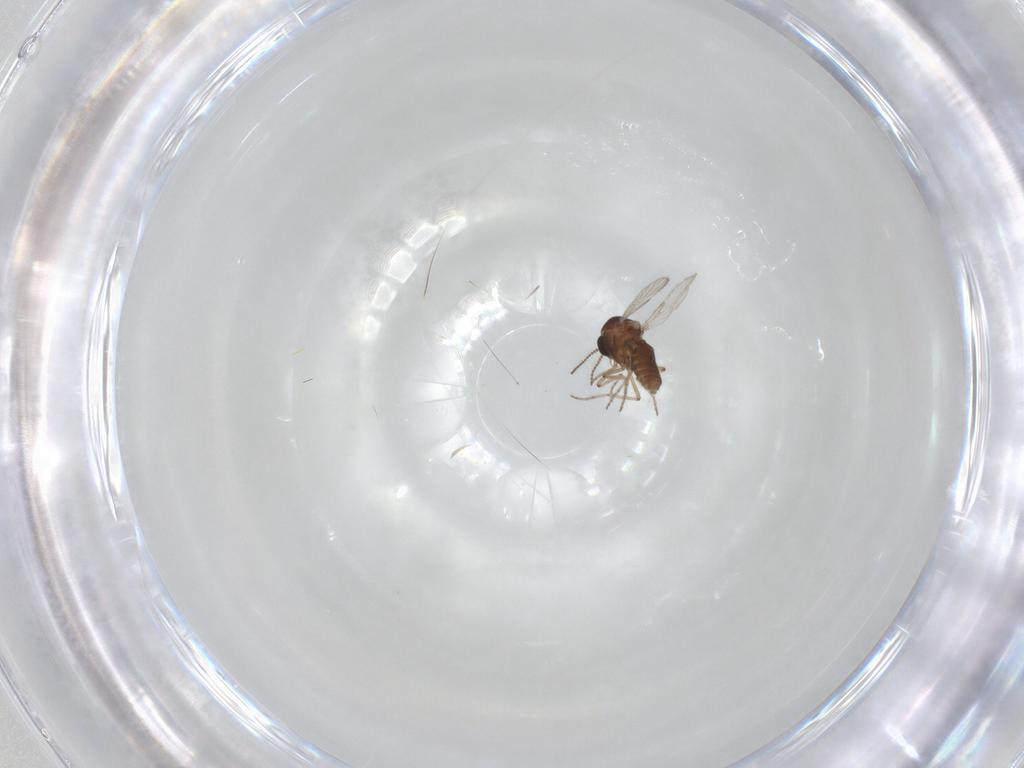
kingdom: Animalia
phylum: Arthropoda
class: Insecta
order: Diptera
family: Ceratopogonidae
